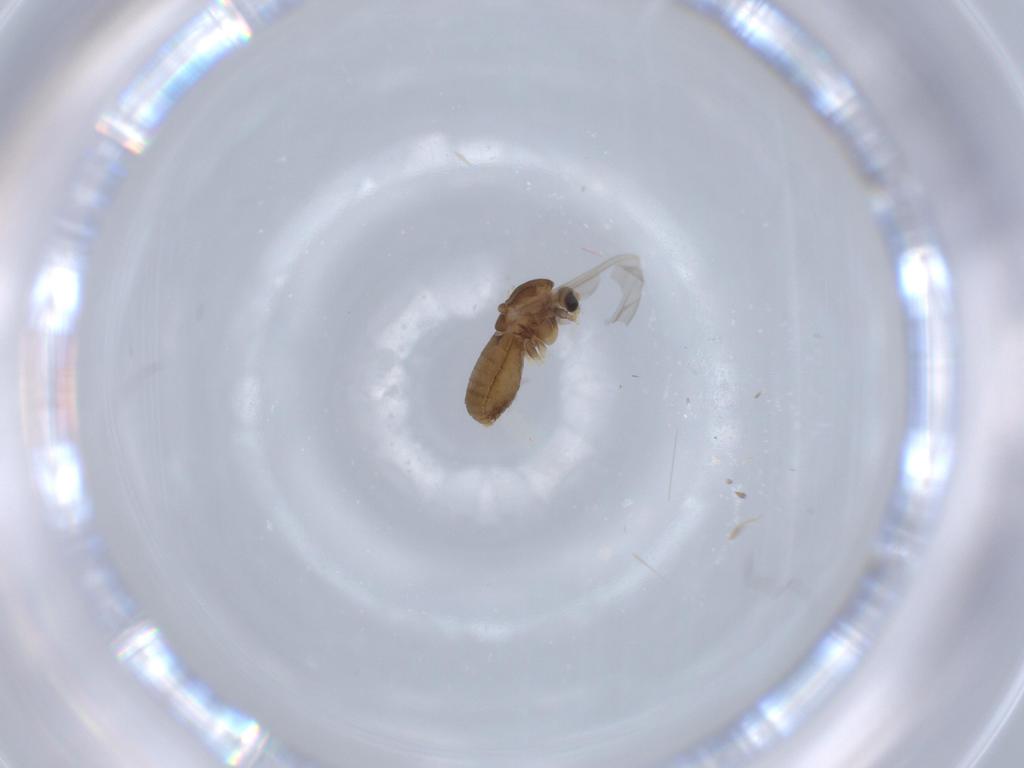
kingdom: Animalia
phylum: Arthropoda
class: Insecta
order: Diptera
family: Chironomidae
